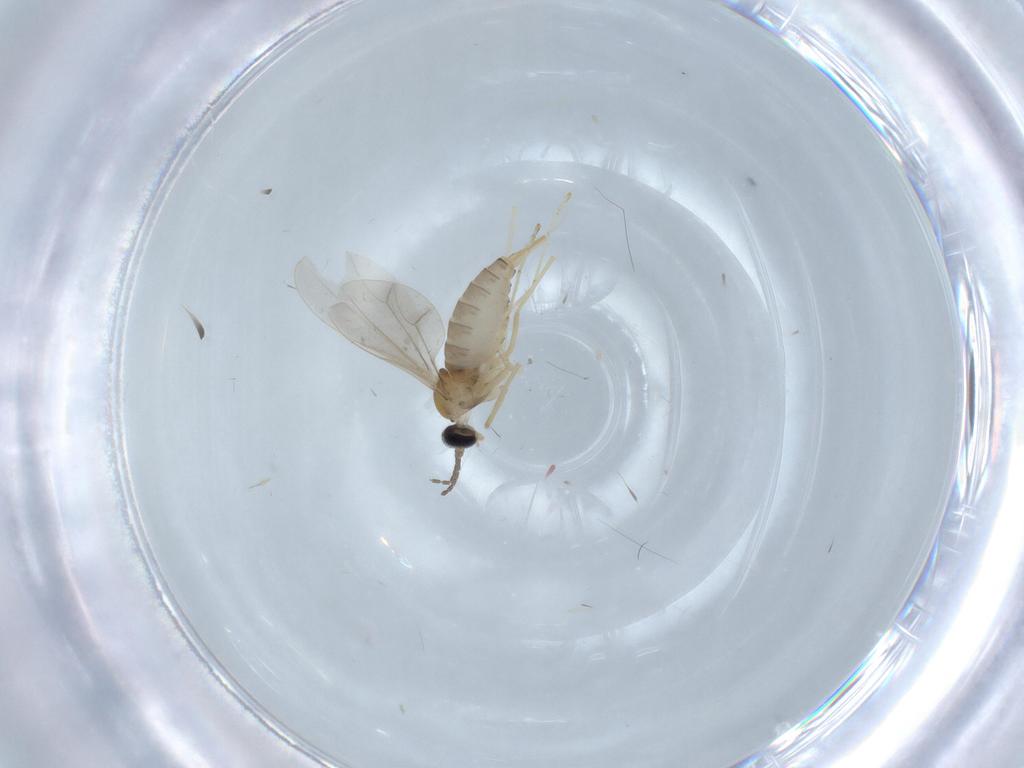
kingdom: Animalia
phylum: Arthropoda
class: Insecta
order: Diptera
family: Cecidomyiidae
